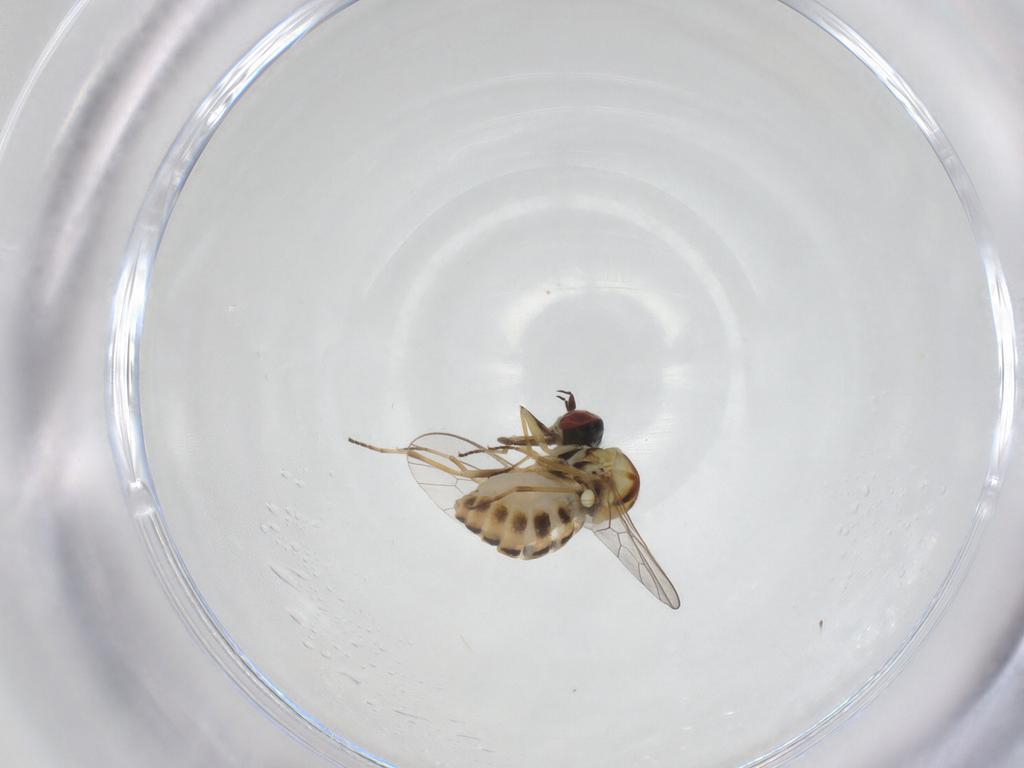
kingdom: Animalia
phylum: Arthropoda
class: Insecta
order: Diptera
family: Bombyliidae
